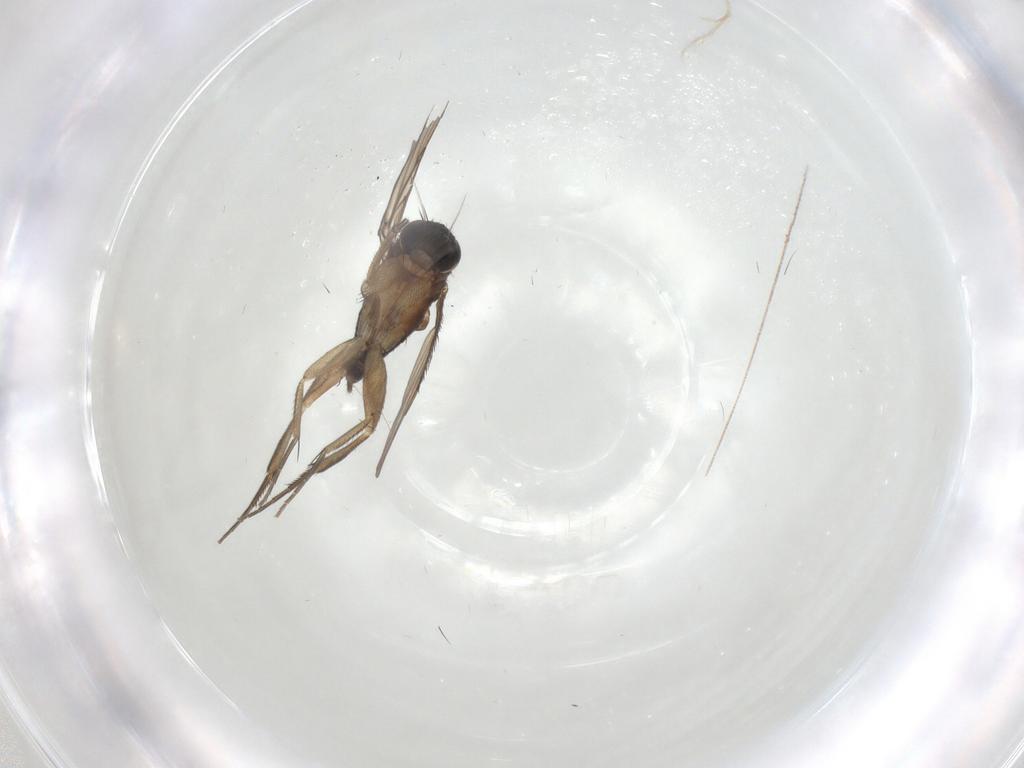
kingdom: Animalia
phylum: Arthropoda
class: Insecta
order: Diptera
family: Phoridae
